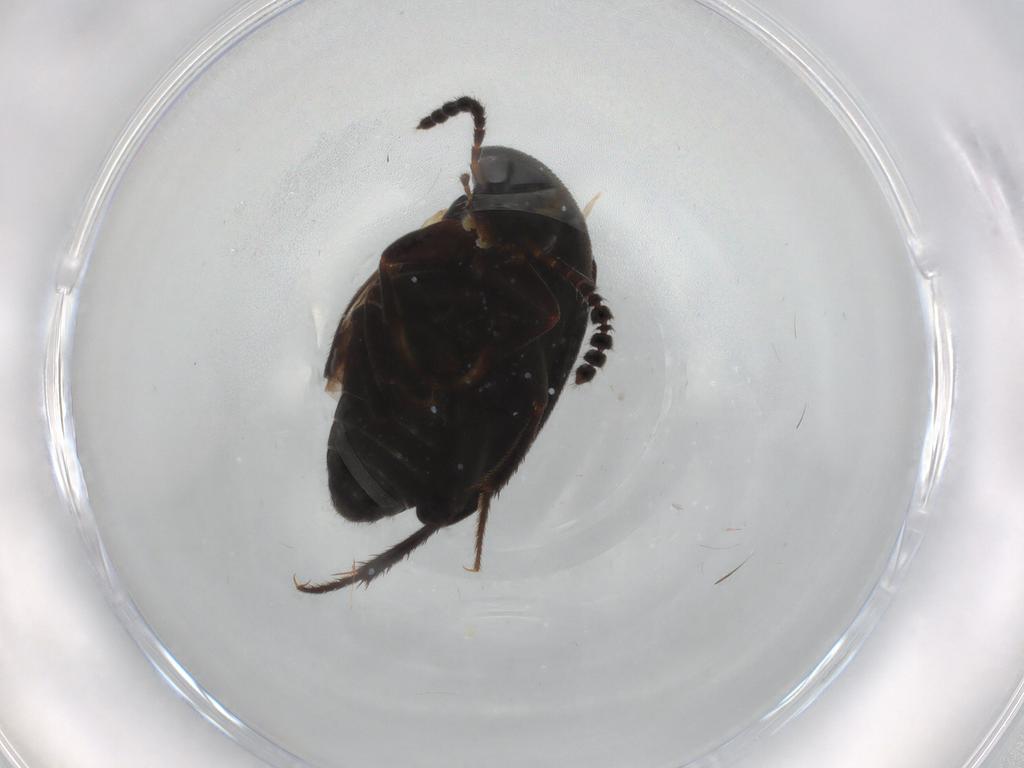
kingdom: Animalia
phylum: Arthropoda
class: Insecta
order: Coleoptera
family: Leiodidae
